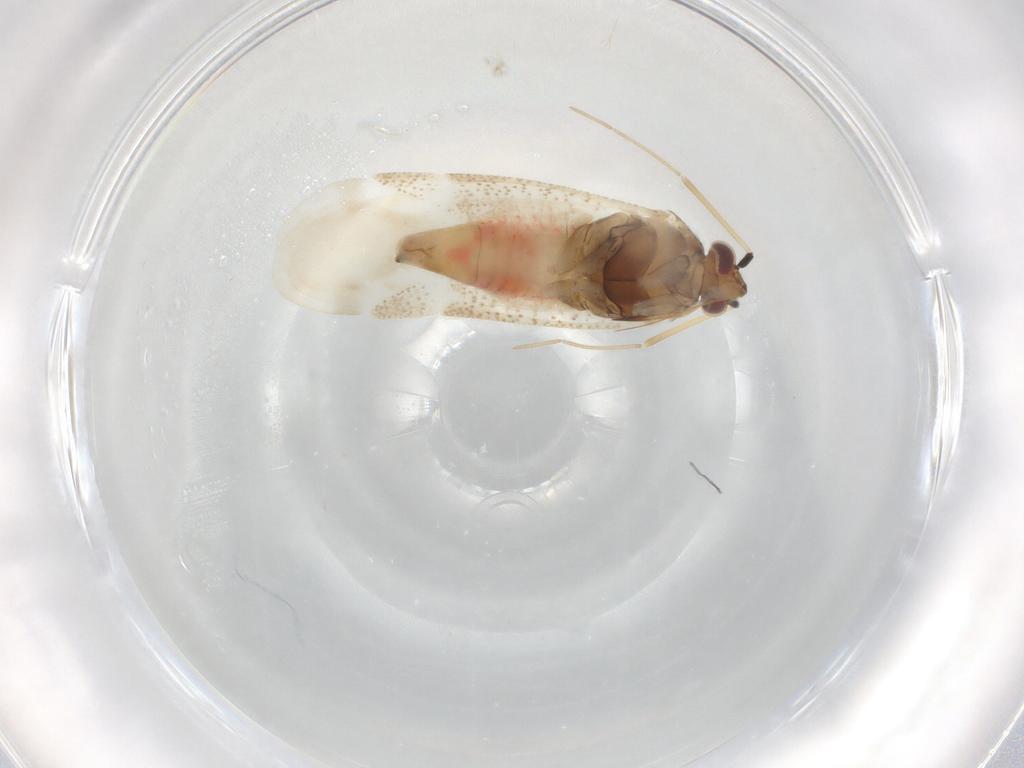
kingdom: Animalia
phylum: Arthropoda
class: Insecta
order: Hemiptera
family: Miridae
